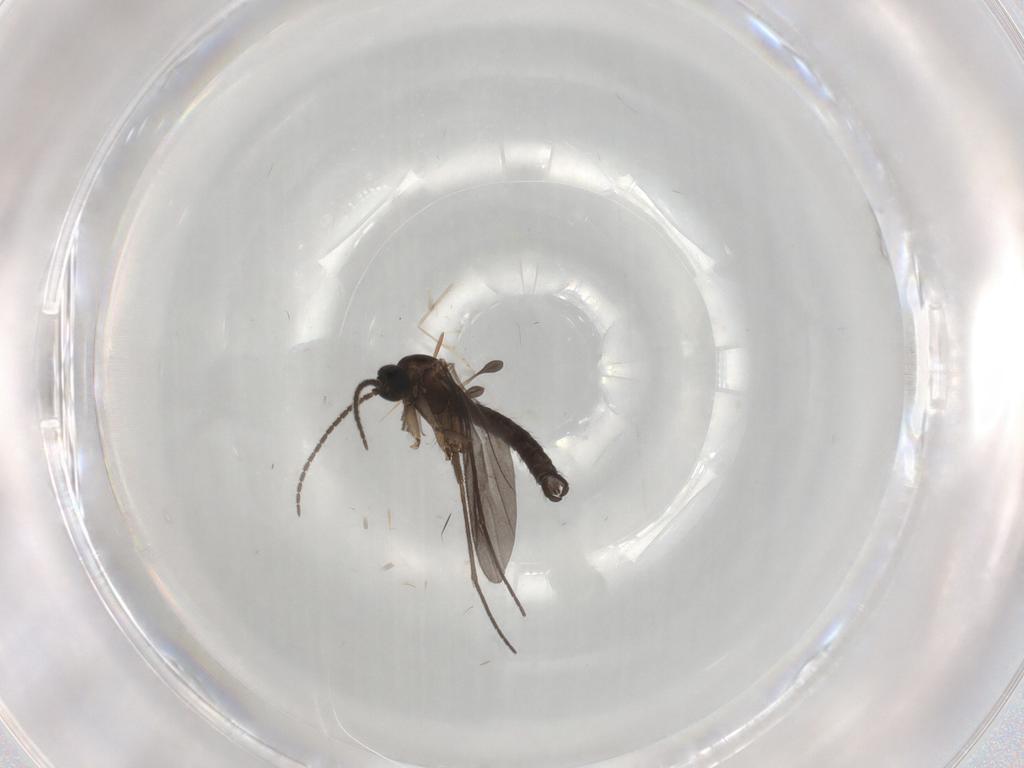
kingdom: Animalia
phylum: Arthropoda
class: Insecta
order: Diptera
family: Sciaridae
